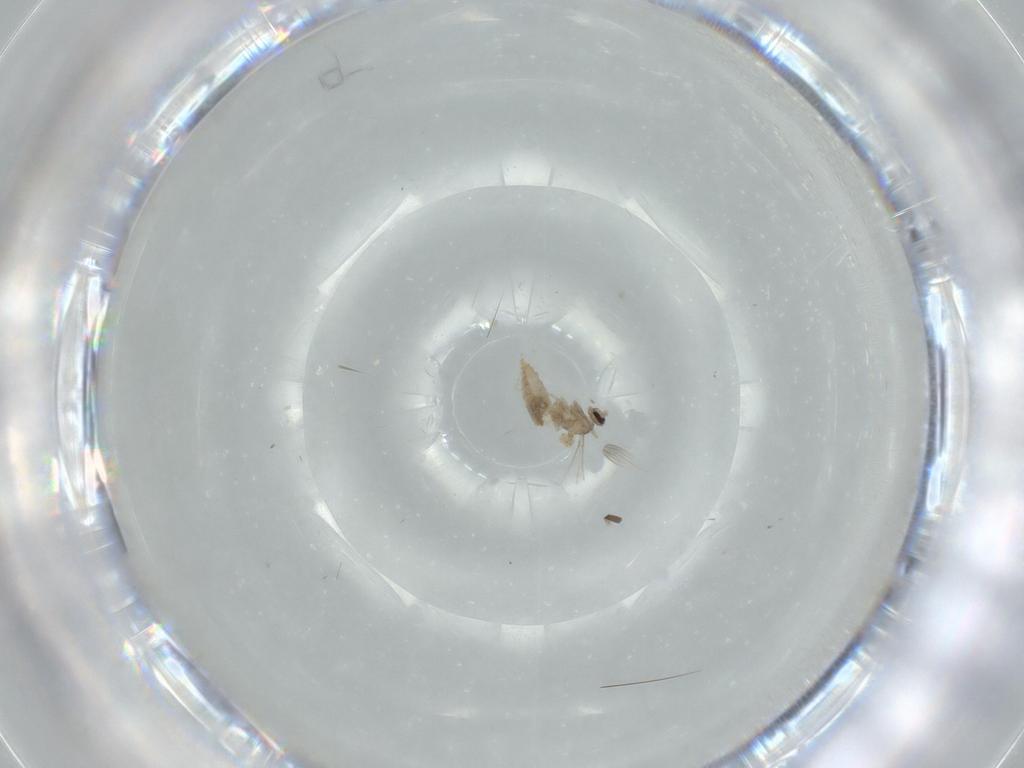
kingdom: Animalia
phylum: Arthropoda
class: Insecta
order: Diptera
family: Cecidomyiidae
